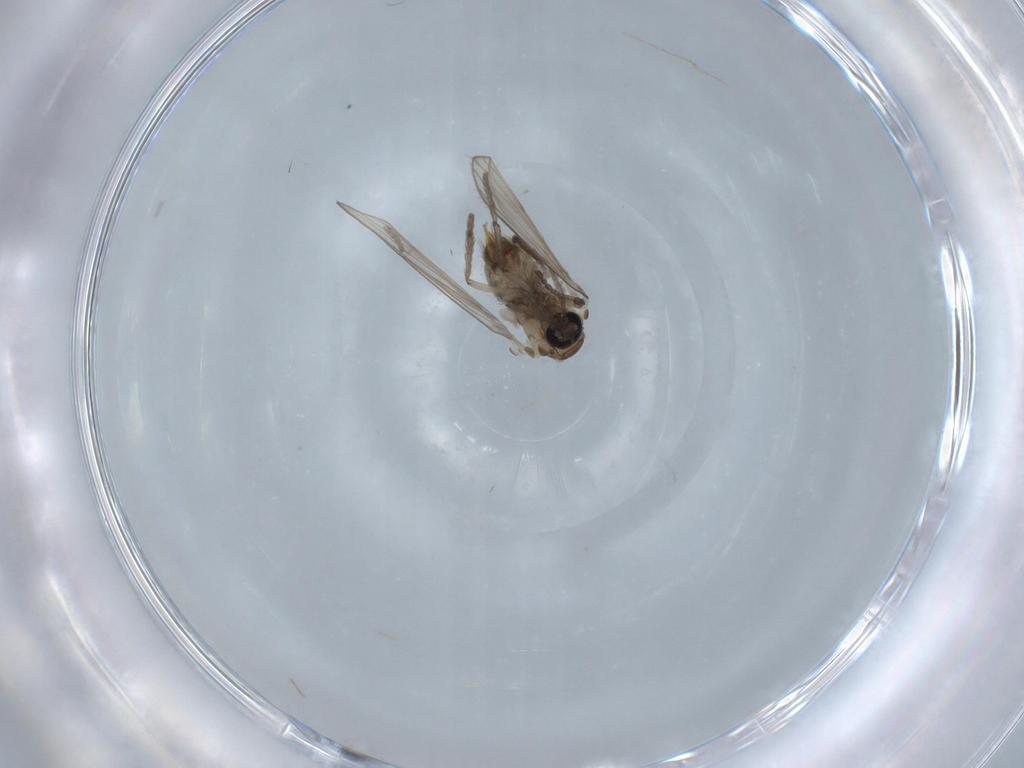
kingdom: Animalia
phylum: Arthropoda
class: Insecta
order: Diptera
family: Psychodidae
